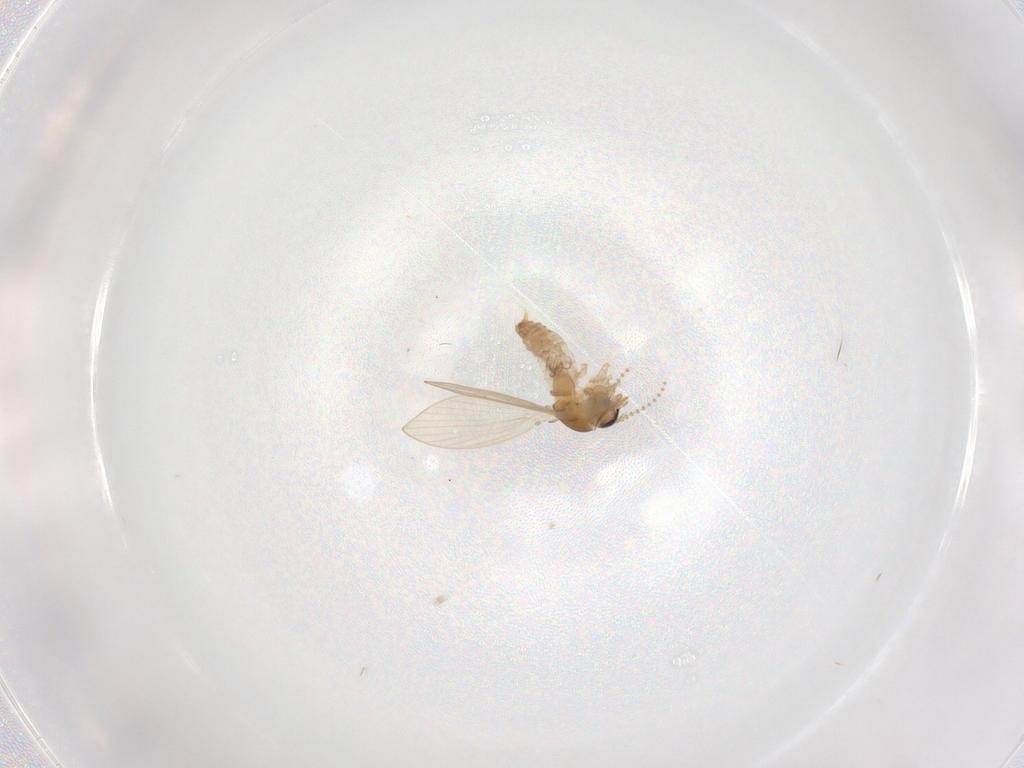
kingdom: Animalia
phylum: Arthropoda
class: Insecta
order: Diptera
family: Psychodidae
